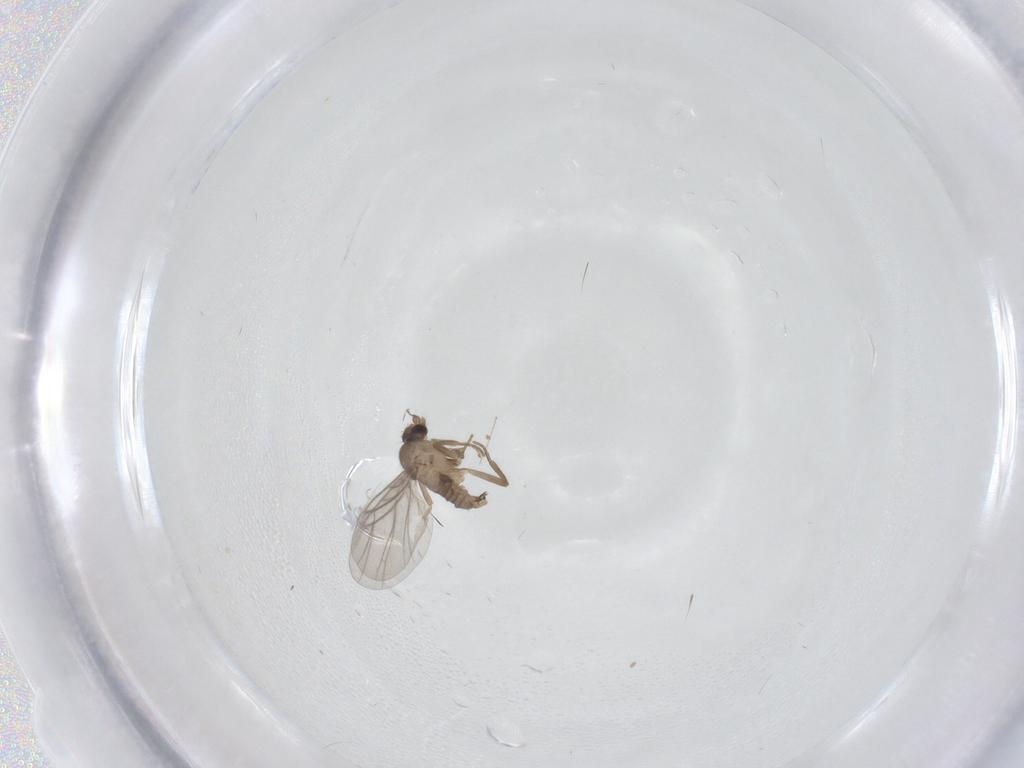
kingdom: Animalia
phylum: Arthropoda
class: Insecta
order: Diptera
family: Cecidomyiidae
